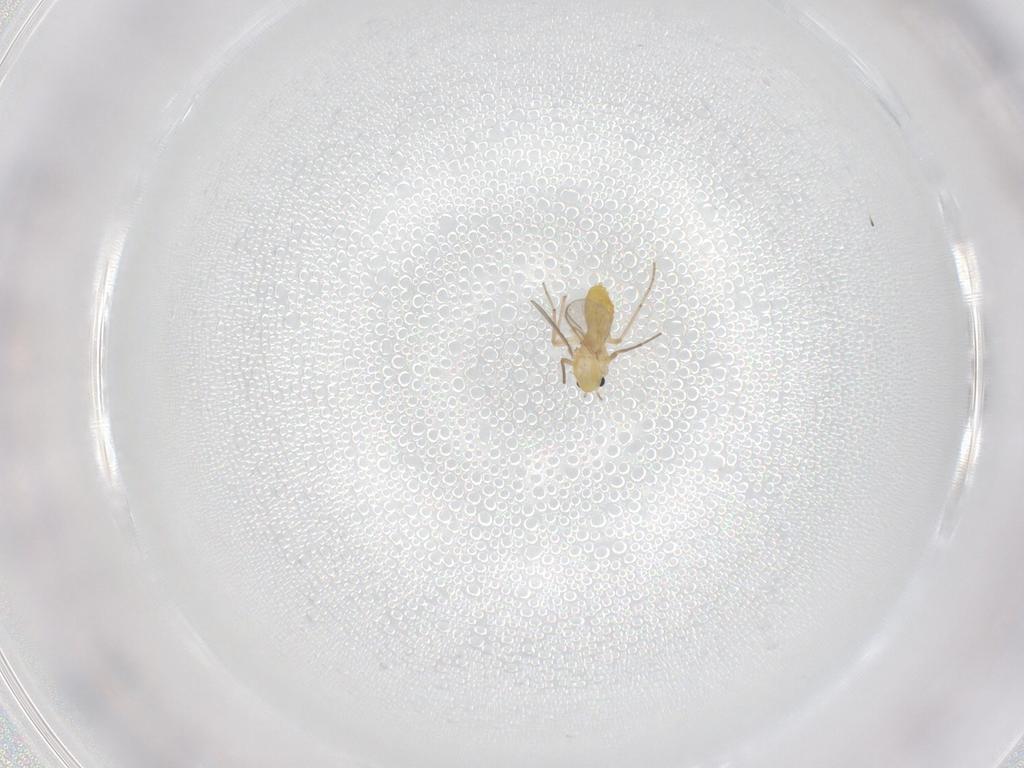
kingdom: Animalia
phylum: Arthropoda
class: Insecta
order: Diptera
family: Chironomidae
